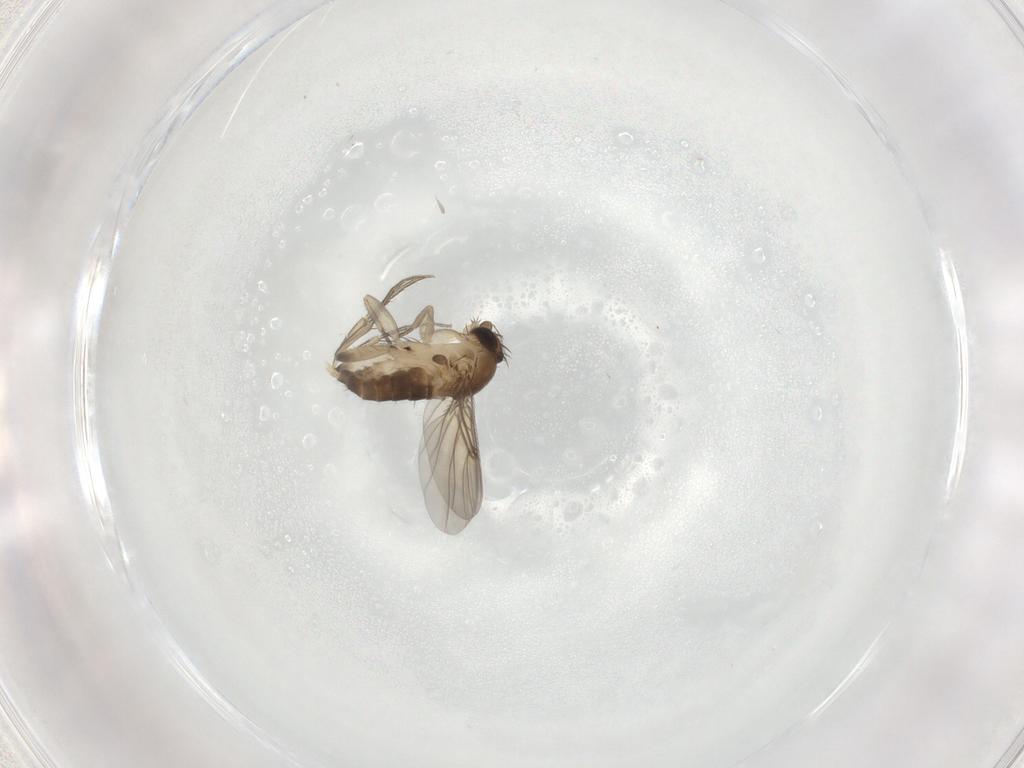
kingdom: Animalia
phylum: Arthropoda
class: Insecta
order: Diptera
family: Phoridae
